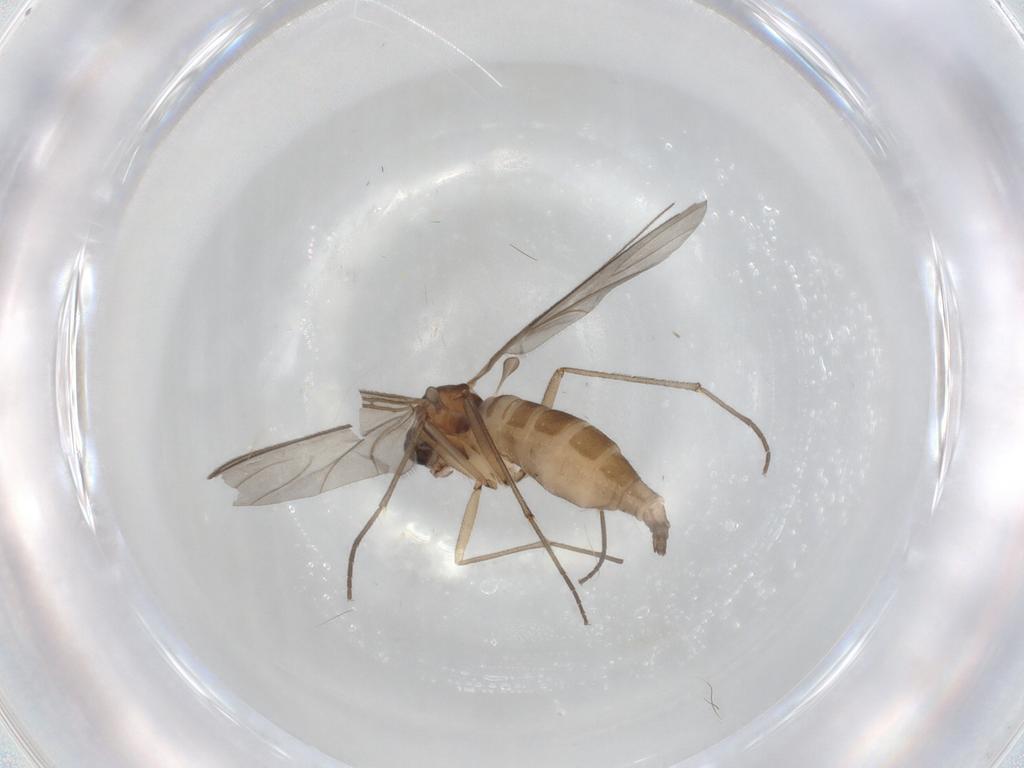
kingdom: Animalia
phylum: Arthropoda
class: Insecta
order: Diptera
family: Sciaridae
